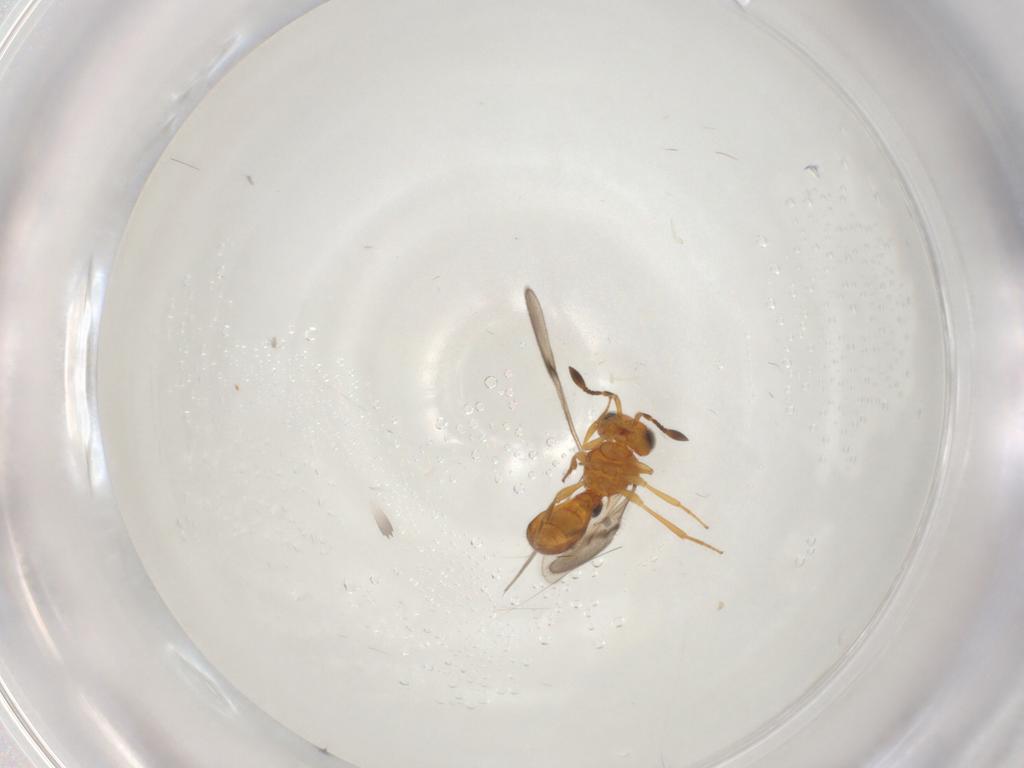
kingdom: Animalia
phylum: Arthropoda
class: Insecta
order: Hymenoptera
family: Scelionidae
